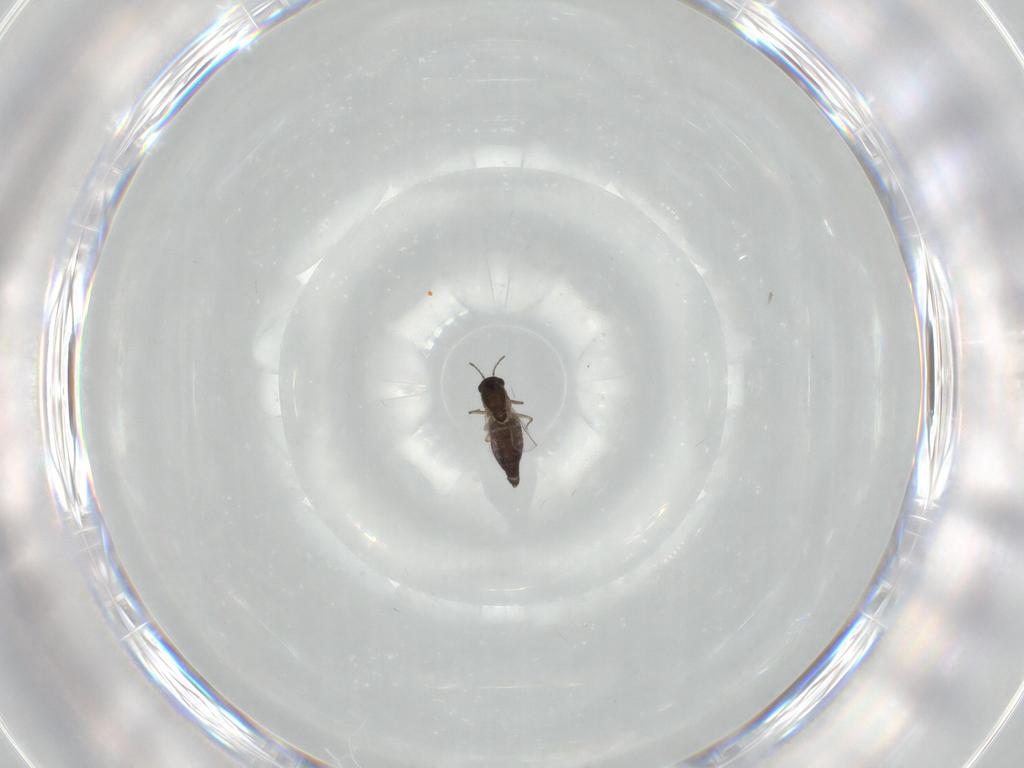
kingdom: Animalia
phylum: Arthropoda
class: Insecta
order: Diptera
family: Chironomidae
